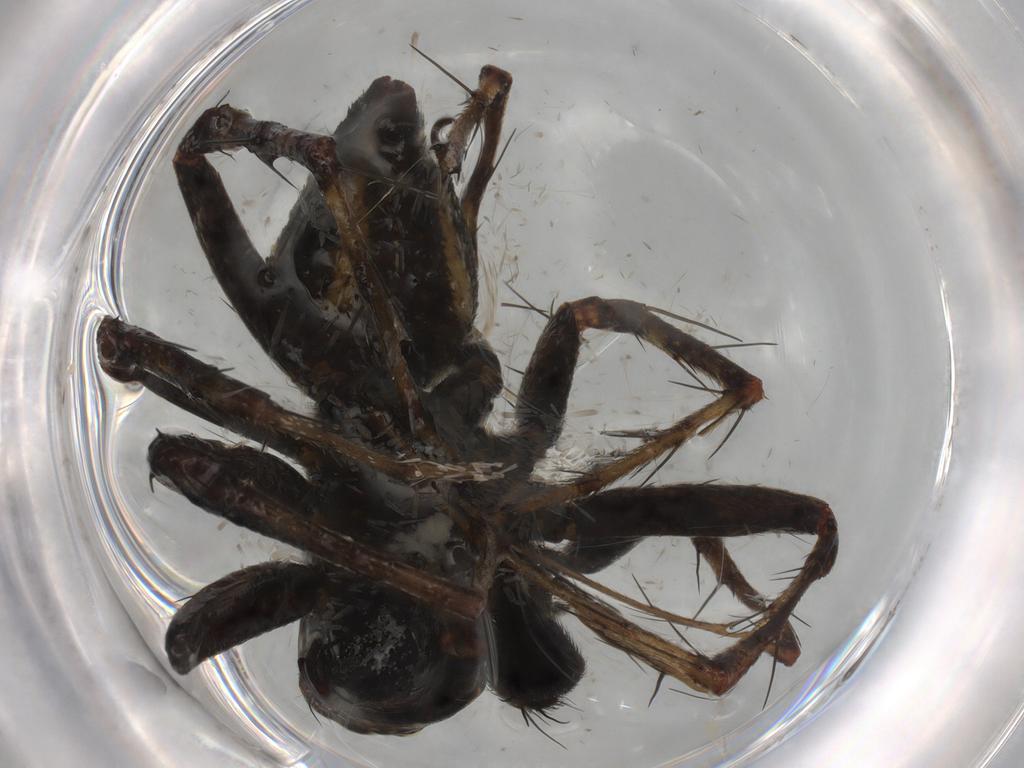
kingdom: Animalia
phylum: Arthropoda
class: Arachnida
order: Araneae
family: Oxyopidae
